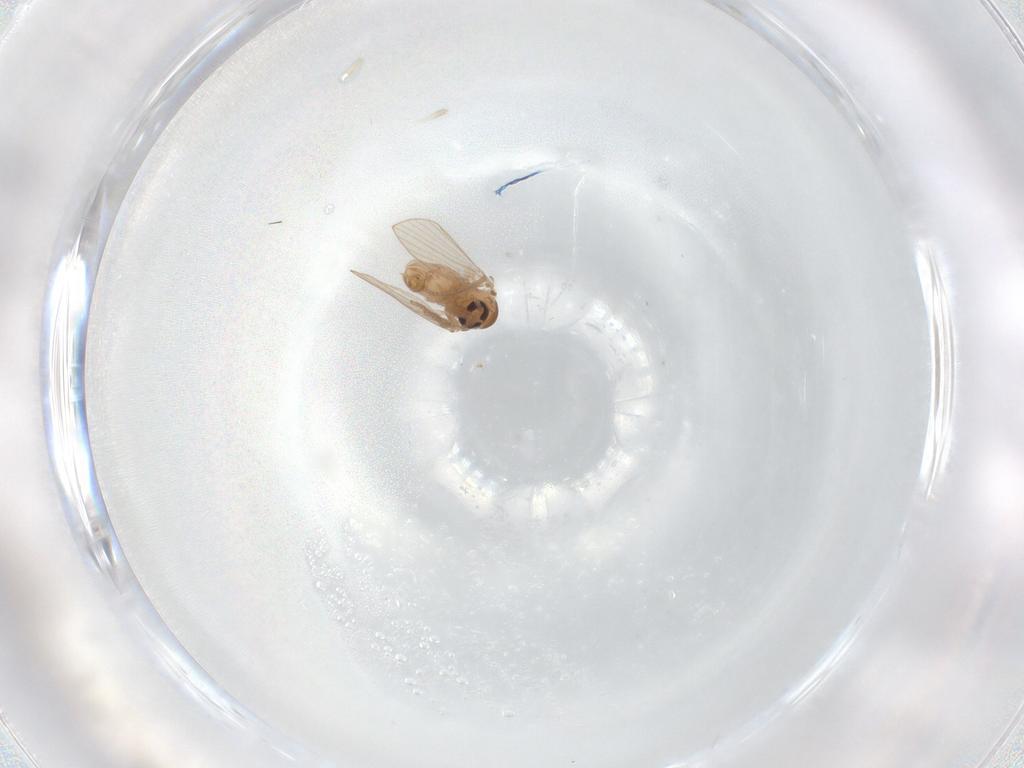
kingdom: Animalia
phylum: Arthropoda
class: Insecta
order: Diptera
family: Psychodidae
